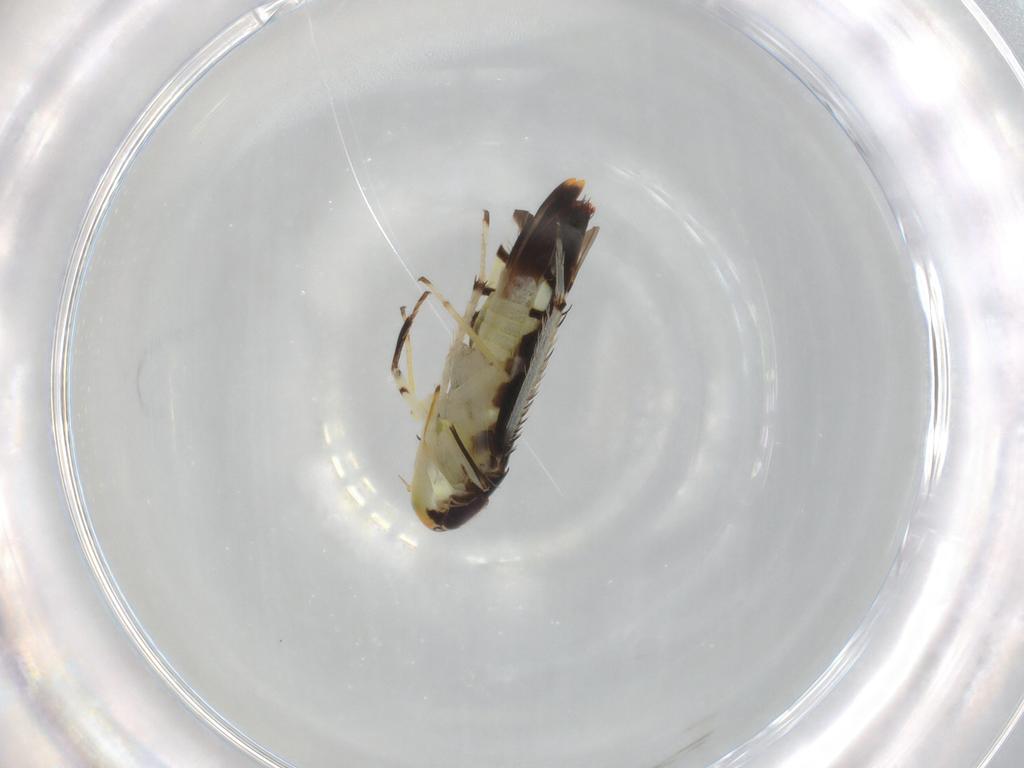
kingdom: Animalia
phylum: Arthropoda
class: Insecta
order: Hemiptera
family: Cicadellidae
